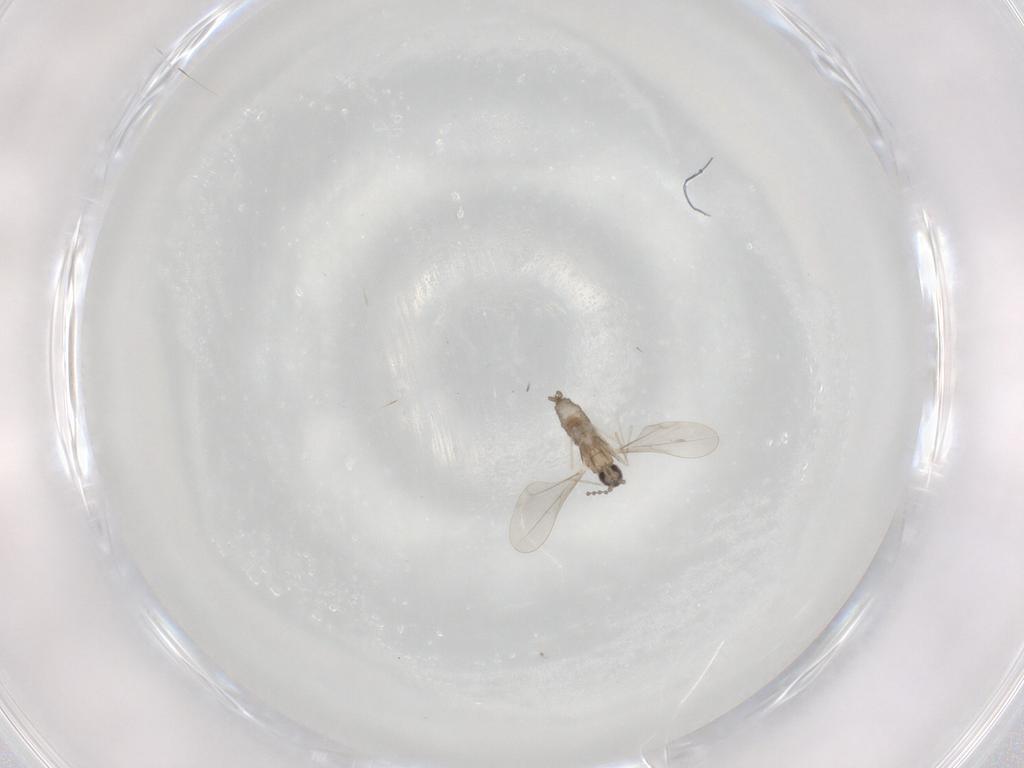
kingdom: Animalia
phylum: Arthropoda
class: Insecta
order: Diptera
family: Cecidomyiidae
